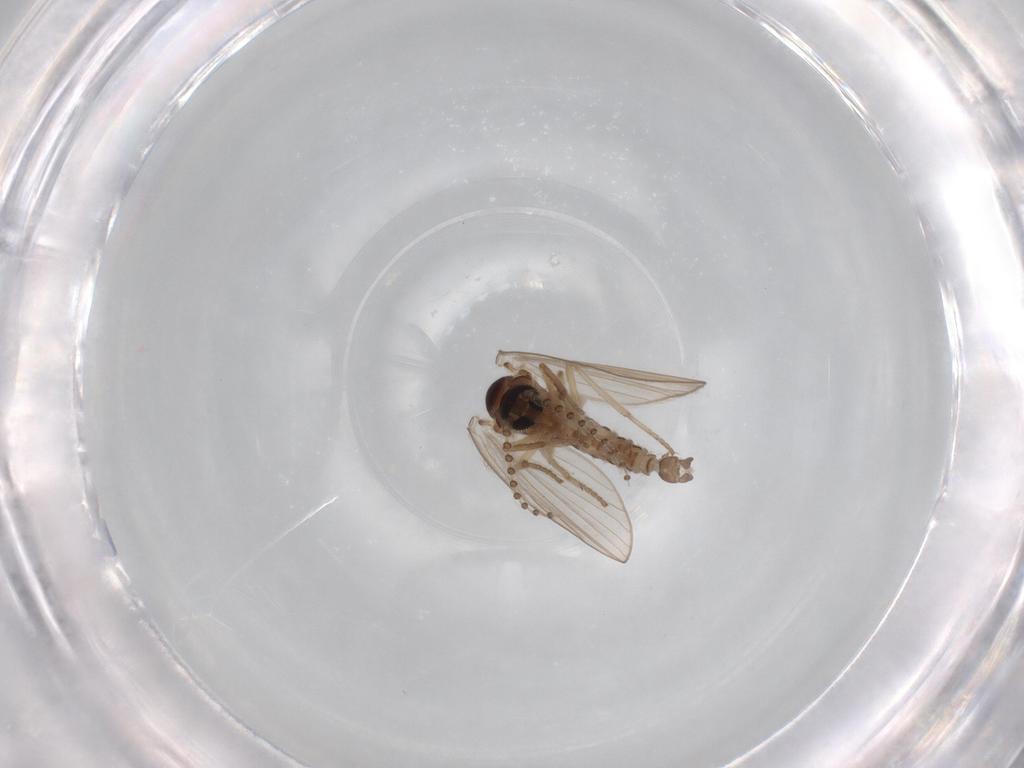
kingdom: Animalia
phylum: Arthropoda
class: Insecta
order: Diptera
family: Psychodidae
